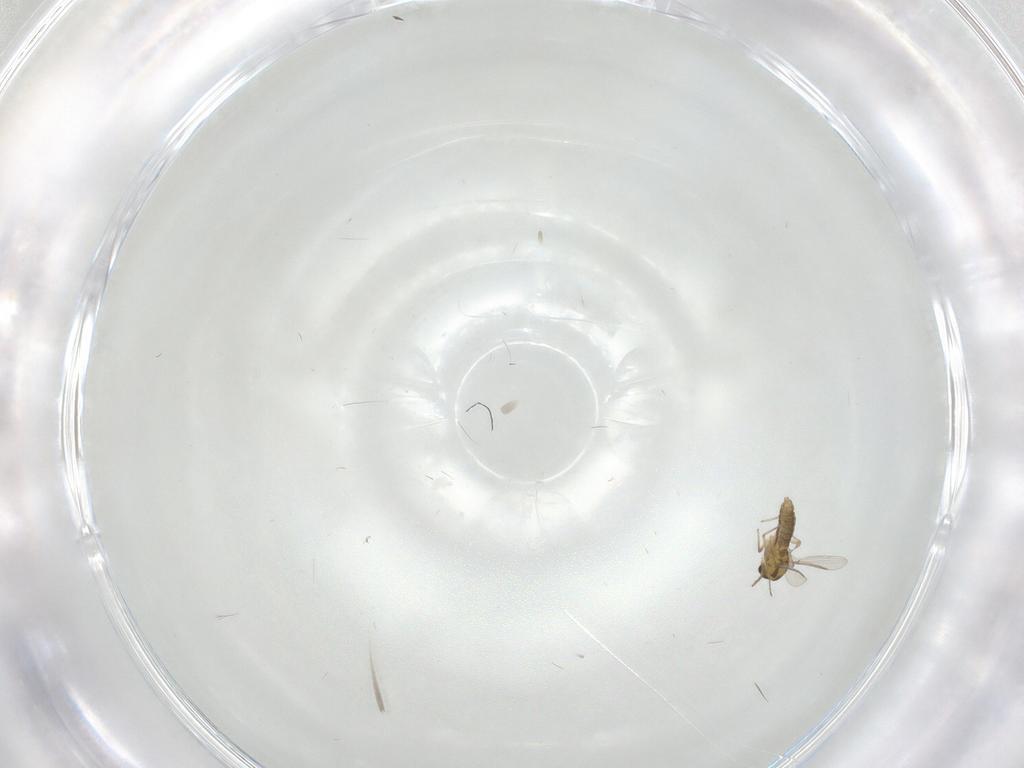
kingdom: Animalia
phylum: Arthropoda
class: Insecta
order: Diptera
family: Chironomidae
